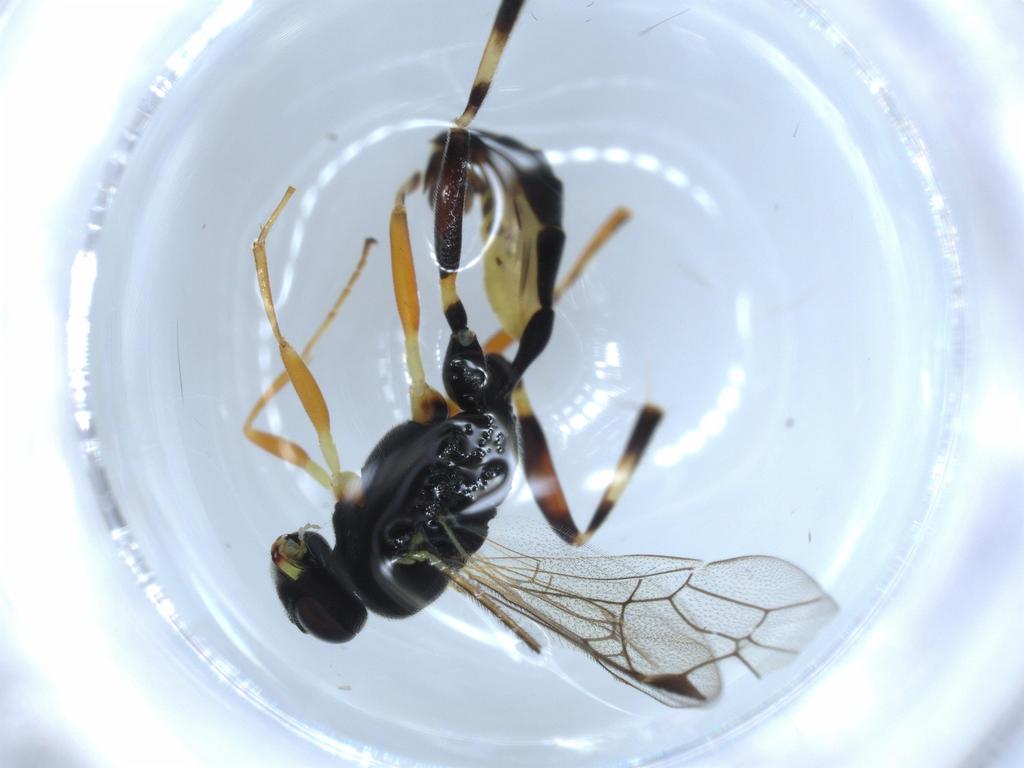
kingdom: Animalia
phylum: Arthropoda
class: Insecta
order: Hymenoptera
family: Ichneumonidae
